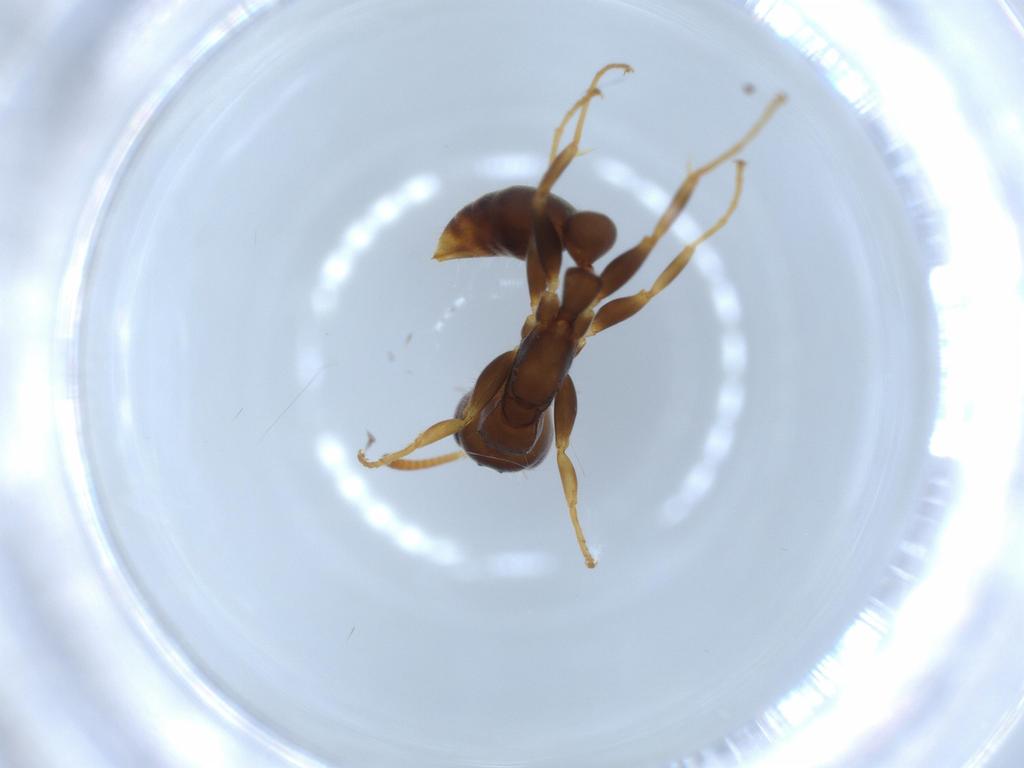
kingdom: Animalia
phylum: Arthropoda
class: Insecta
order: Hymenoptera
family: Formicidae
